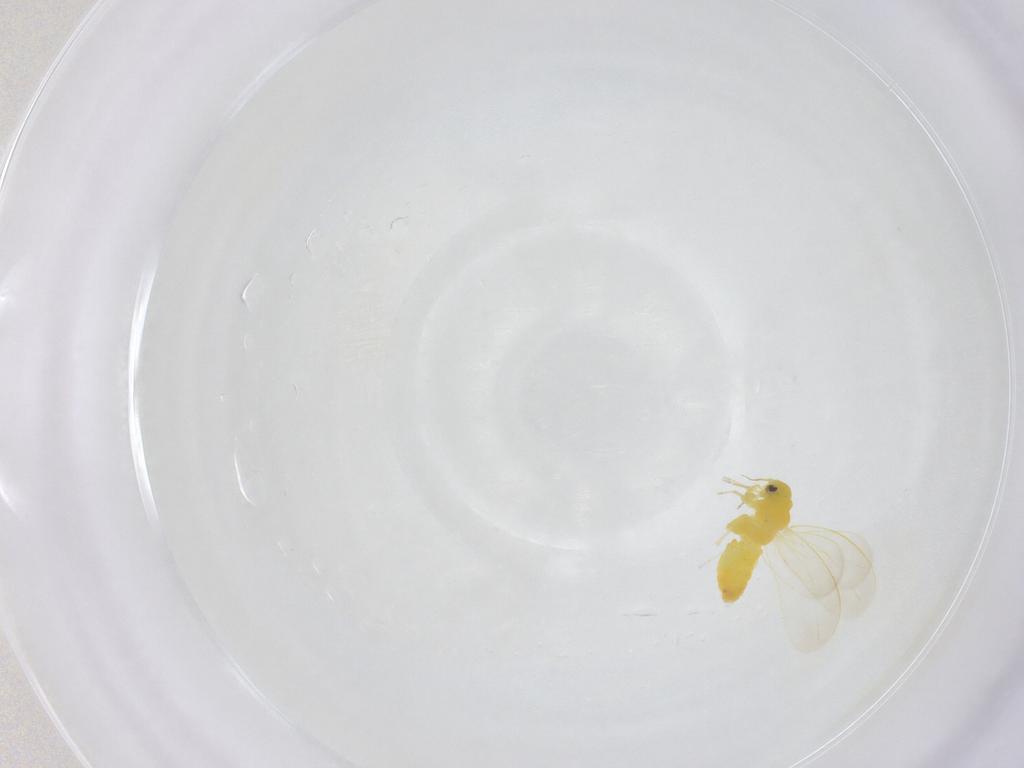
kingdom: Animalia
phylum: Arthropoda
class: Insecta
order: Hemiptera
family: Aleyrodidae
